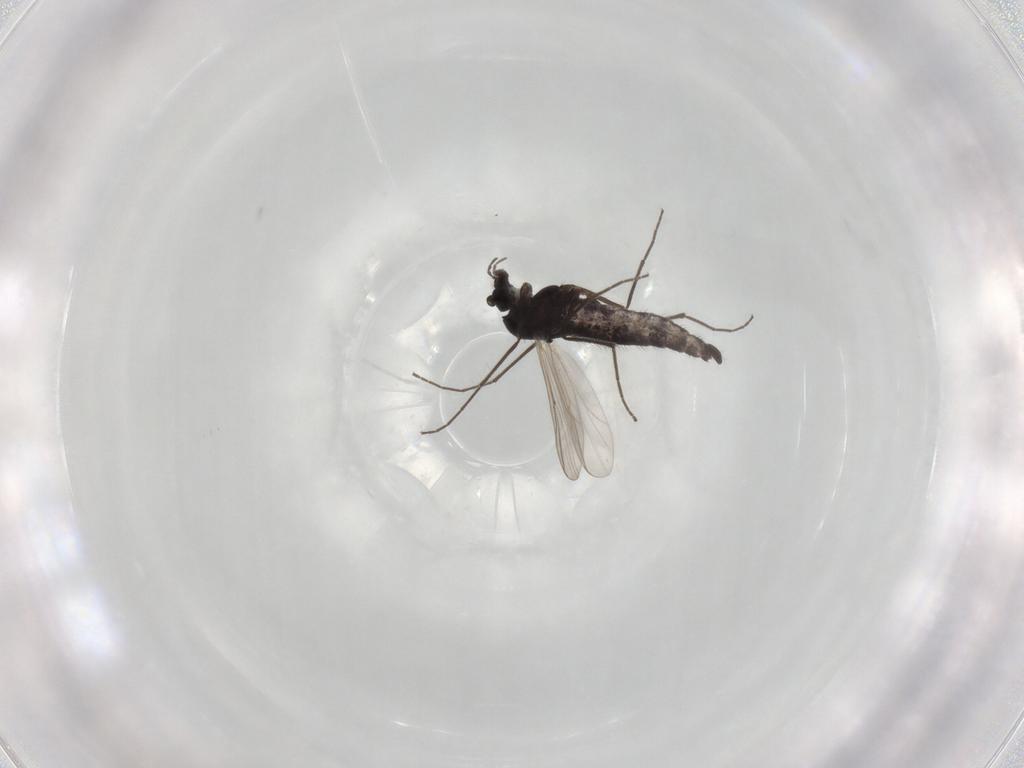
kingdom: Animalia
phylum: Arthropoda
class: Insecta
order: Diptera
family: Chironomidae
